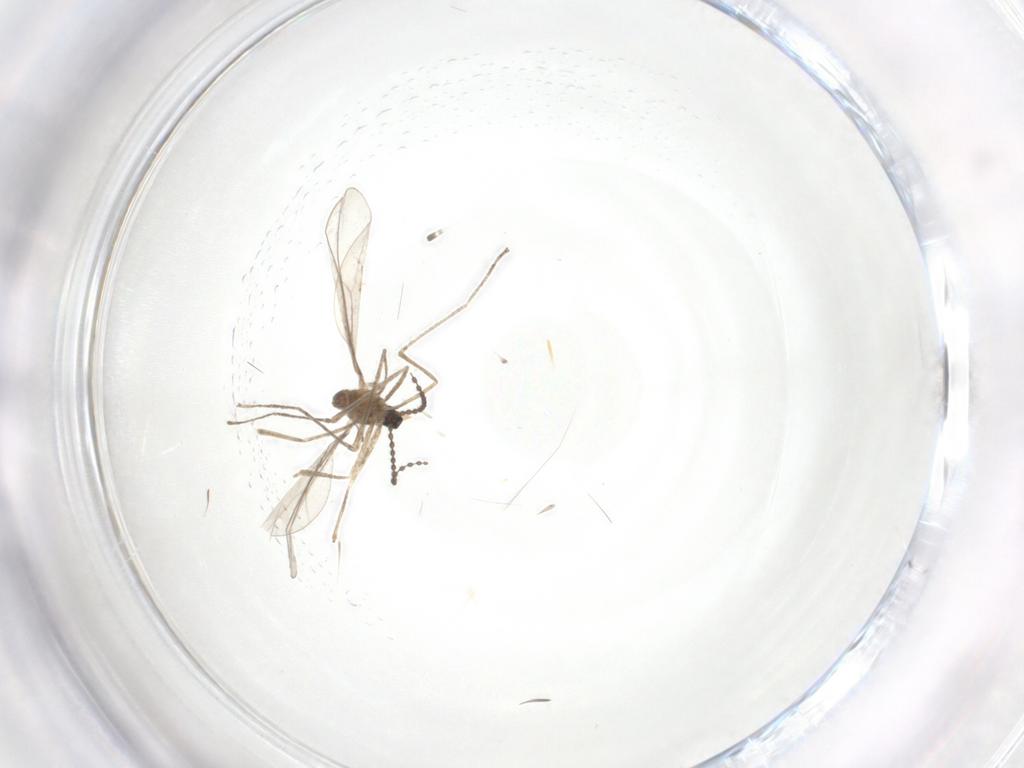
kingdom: Animalia
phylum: Arthropoda
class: Insecta
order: Diptera
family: Cecidomyiidae
